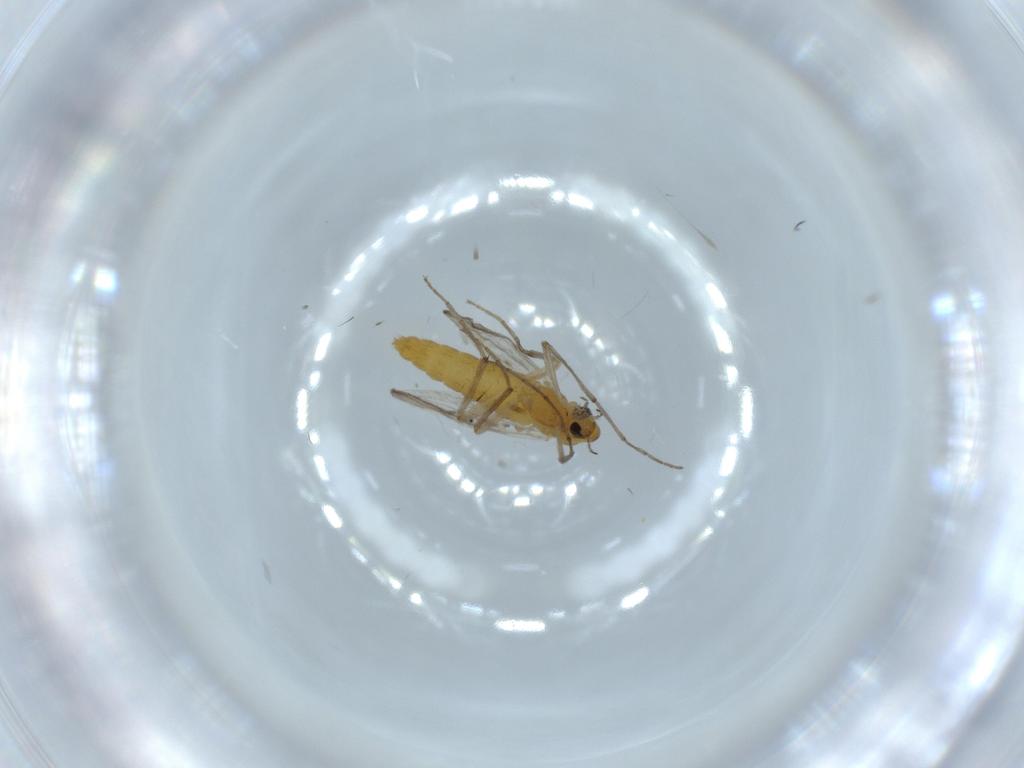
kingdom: Animalia
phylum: Arthropoda
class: Insecta
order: Diptera
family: Chironomidae
